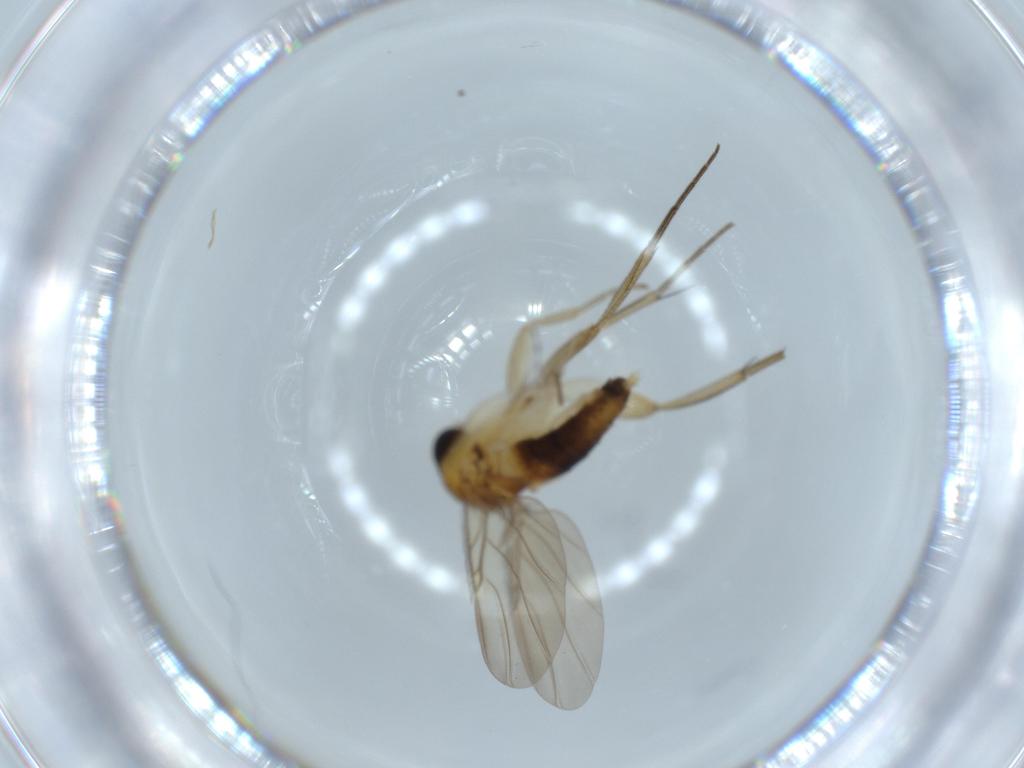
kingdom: Animalia
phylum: Arthropoda
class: Insecta
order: Diptera
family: Phoridae
